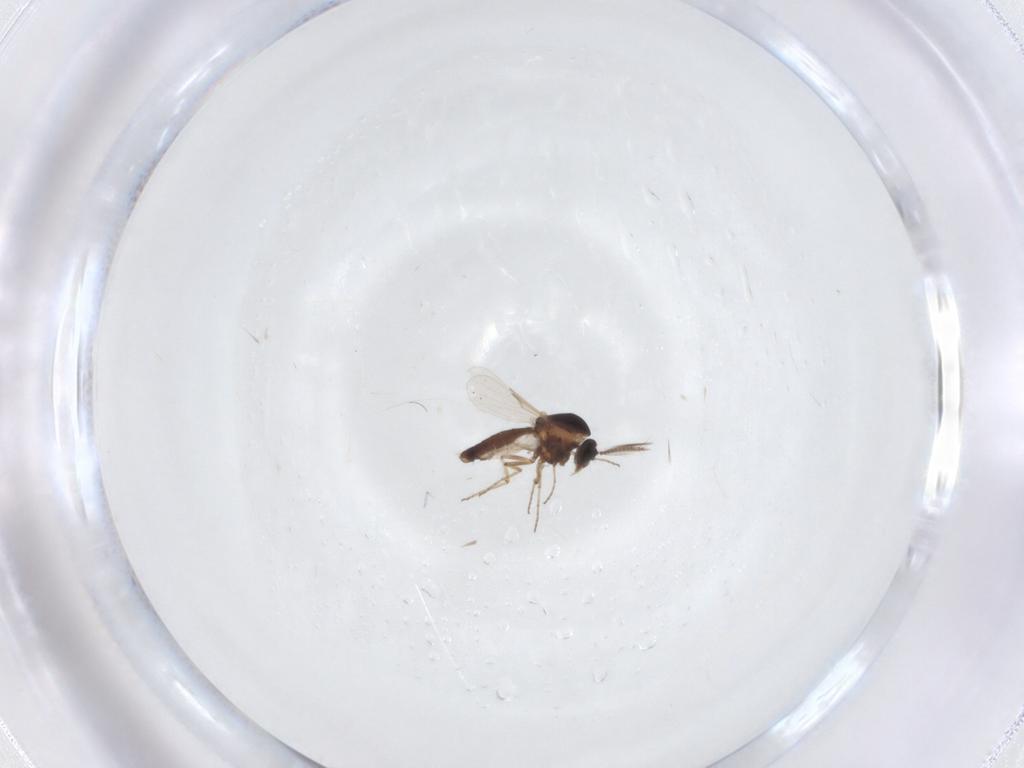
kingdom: Animalia
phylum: Arthropoda
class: Insecta
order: Diptera
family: Ceratopogonidae
